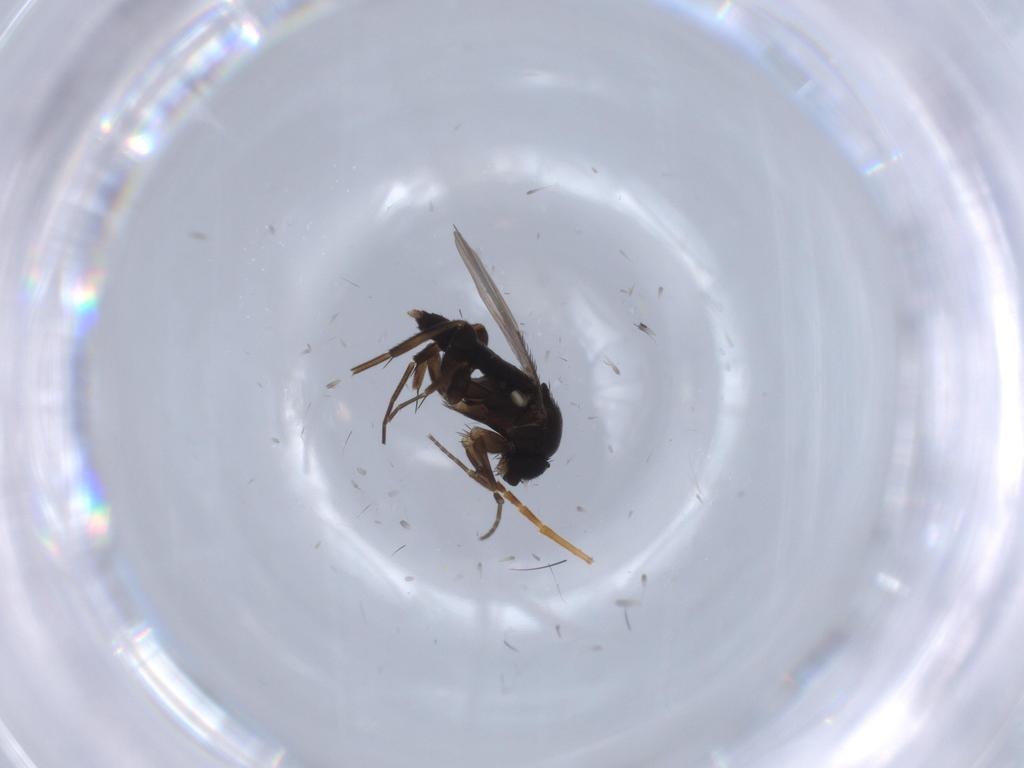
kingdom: Animalia
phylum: Arthropoda
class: Insecta
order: Diptera
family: Phoridae
